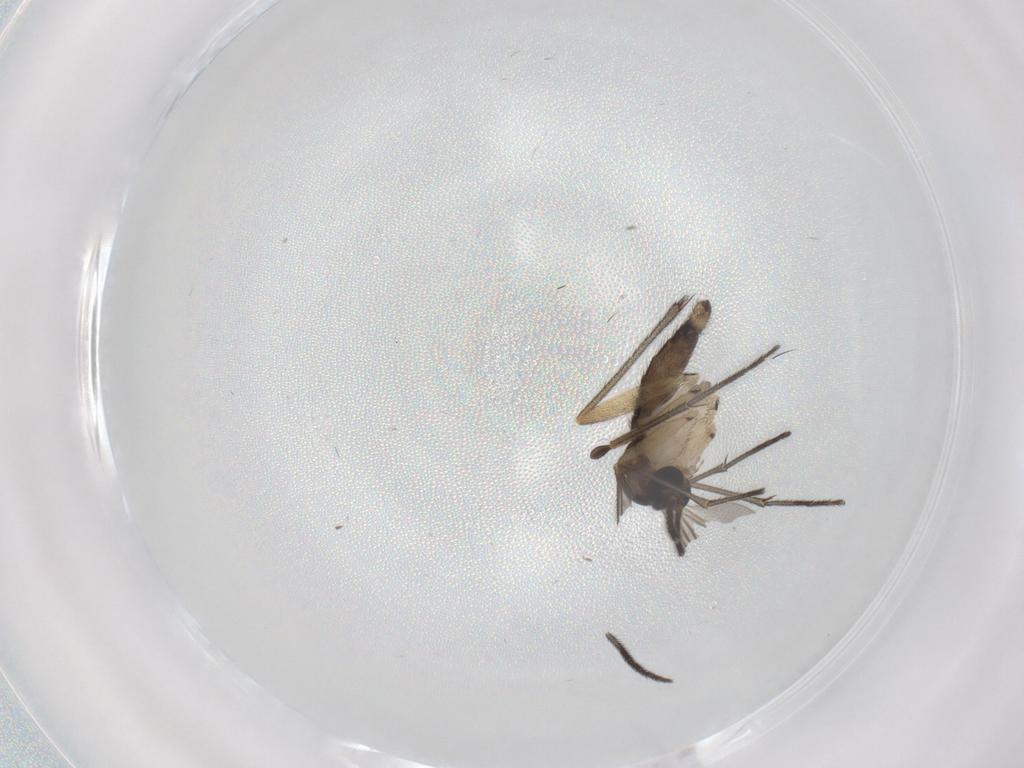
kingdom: Animalia
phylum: Arthropoda
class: Insecta
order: Diptera
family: Sciaridae
